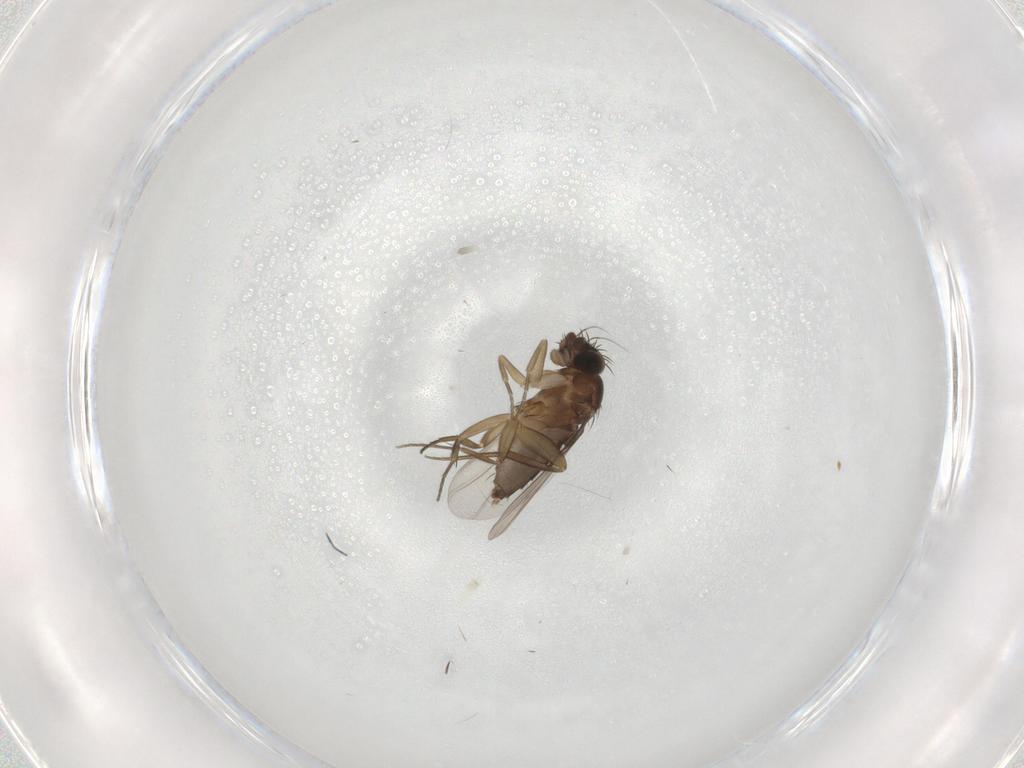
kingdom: Animalia
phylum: Arthropoda
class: Insecta
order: Diptera
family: Phoridae
